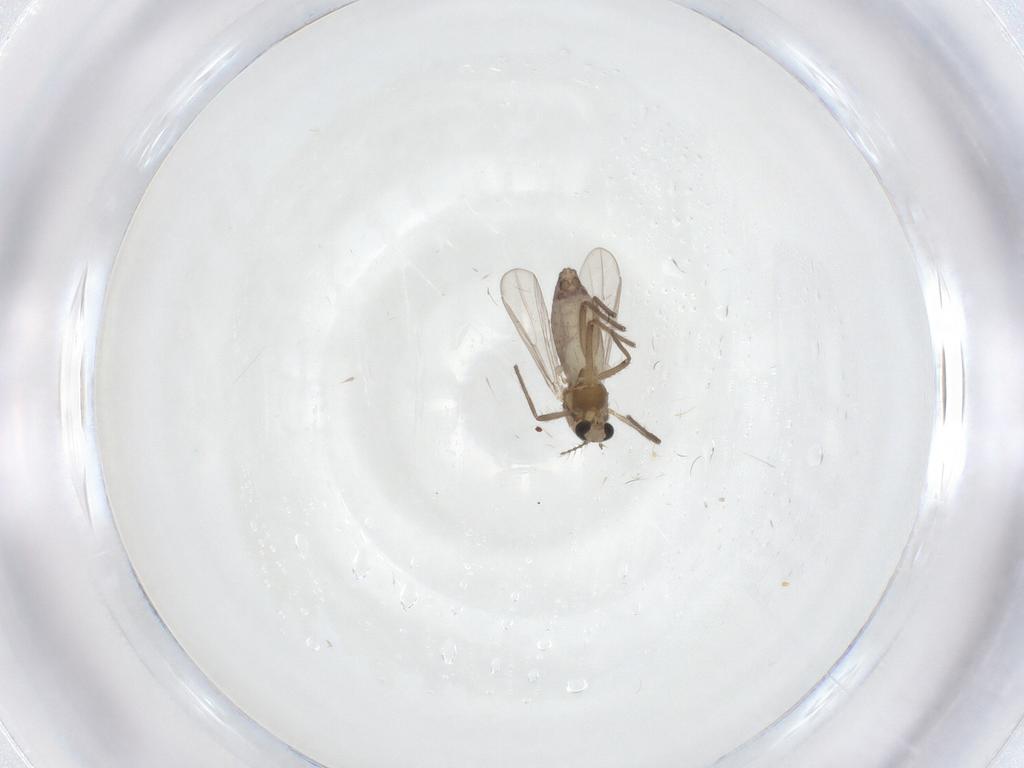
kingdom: Animalia
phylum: Arthropoda
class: Insecta
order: Diptera
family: Chironomidae
